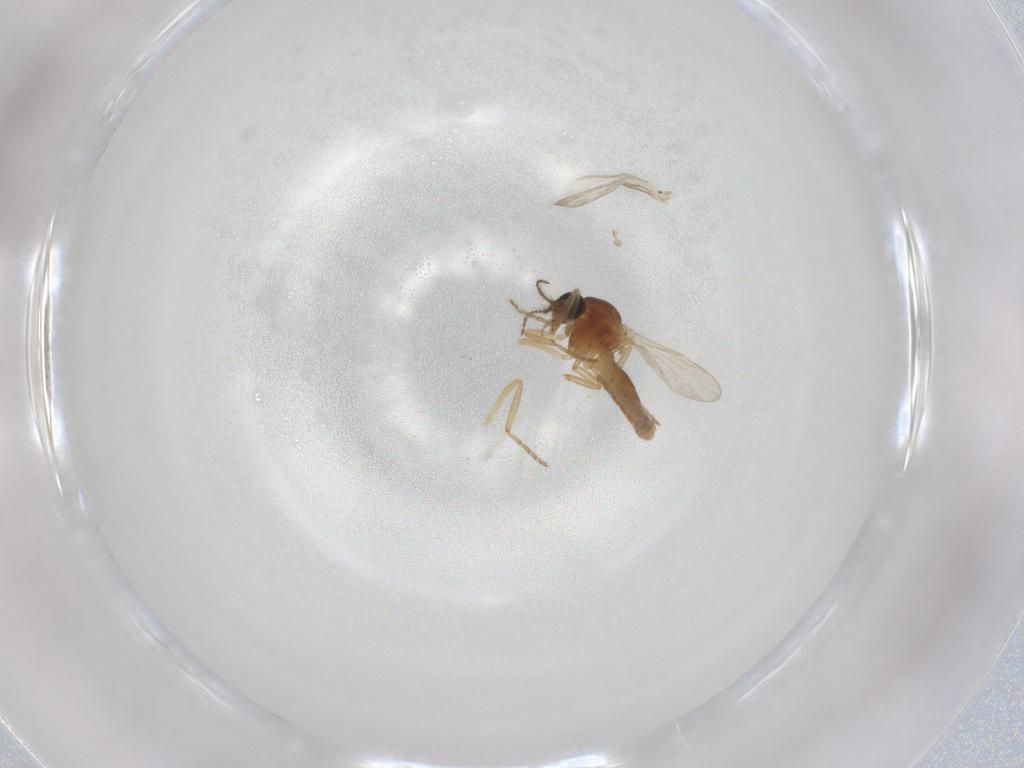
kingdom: Animalia
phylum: Arthropoda
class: Insecta
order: Diptera
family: Ceratopogonidae
